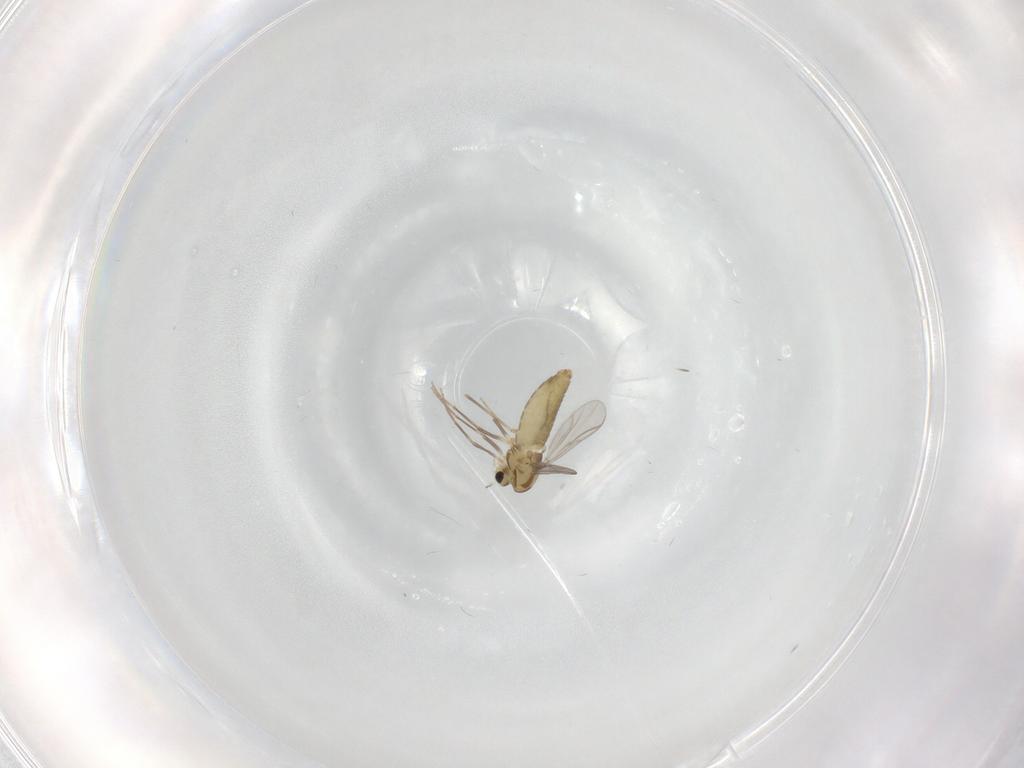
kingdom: Animalia
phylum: Arthropoda
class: Insecta
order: Diptera
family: Chironomidae
